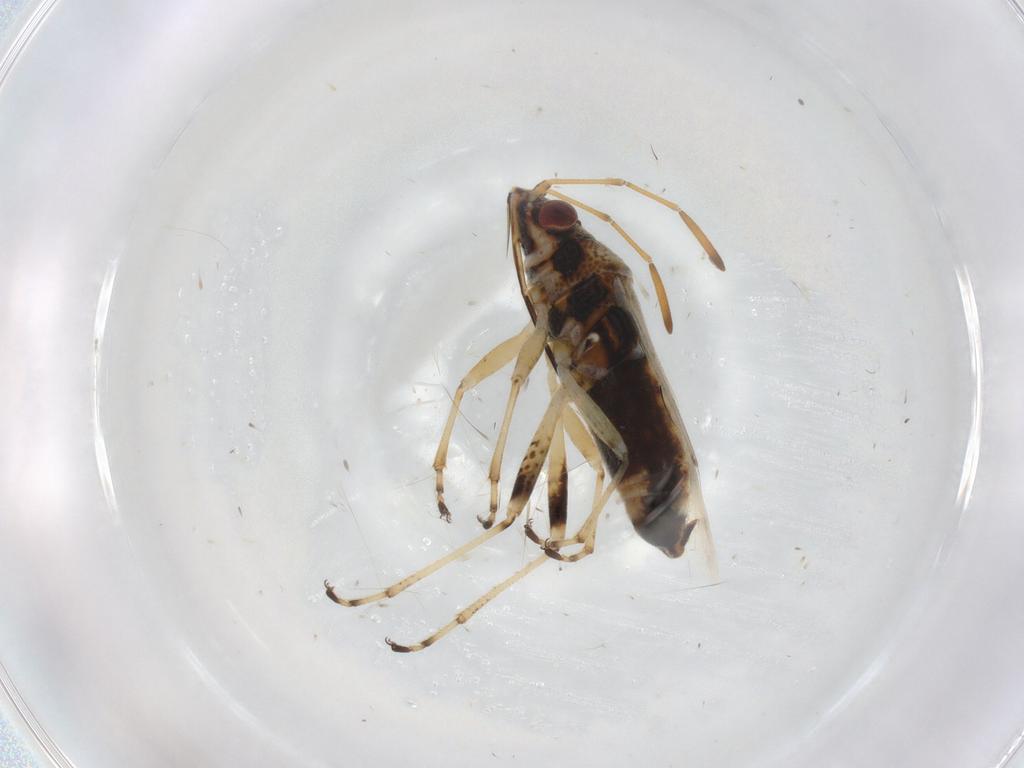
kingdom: Animalia
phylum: Arthropoda
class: Insecta
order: Hemiptera
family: Lygaeidae
